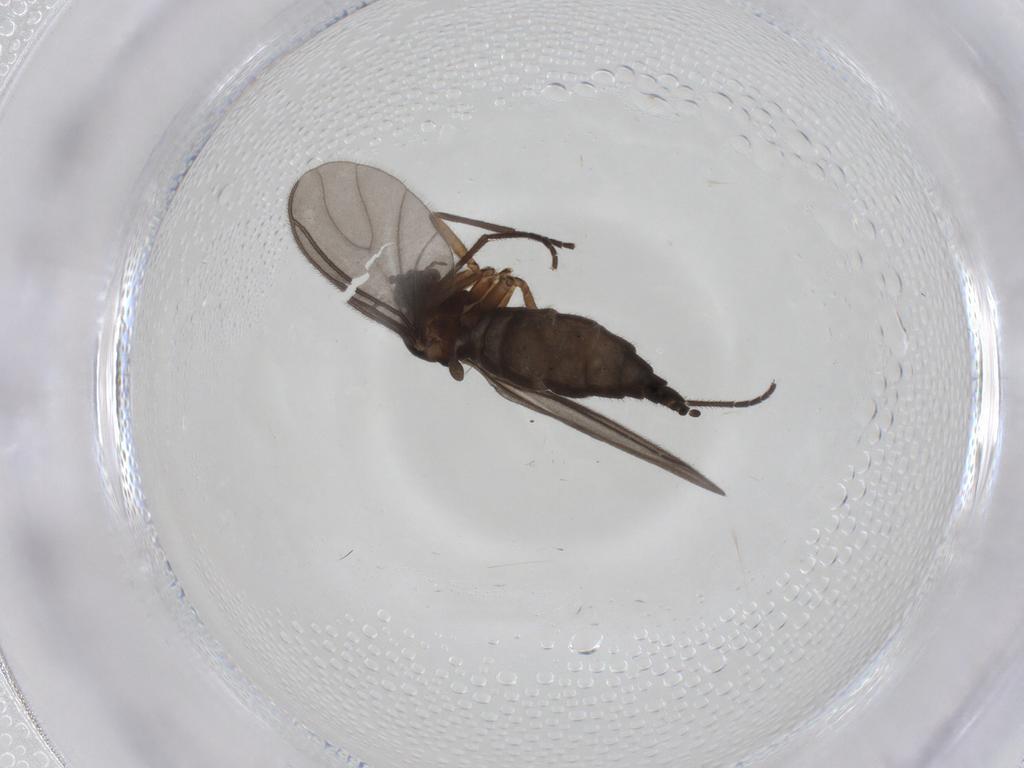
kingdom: Animalia
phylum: Arthropoda
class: Insecta
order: Diptera
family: Sciaridae
